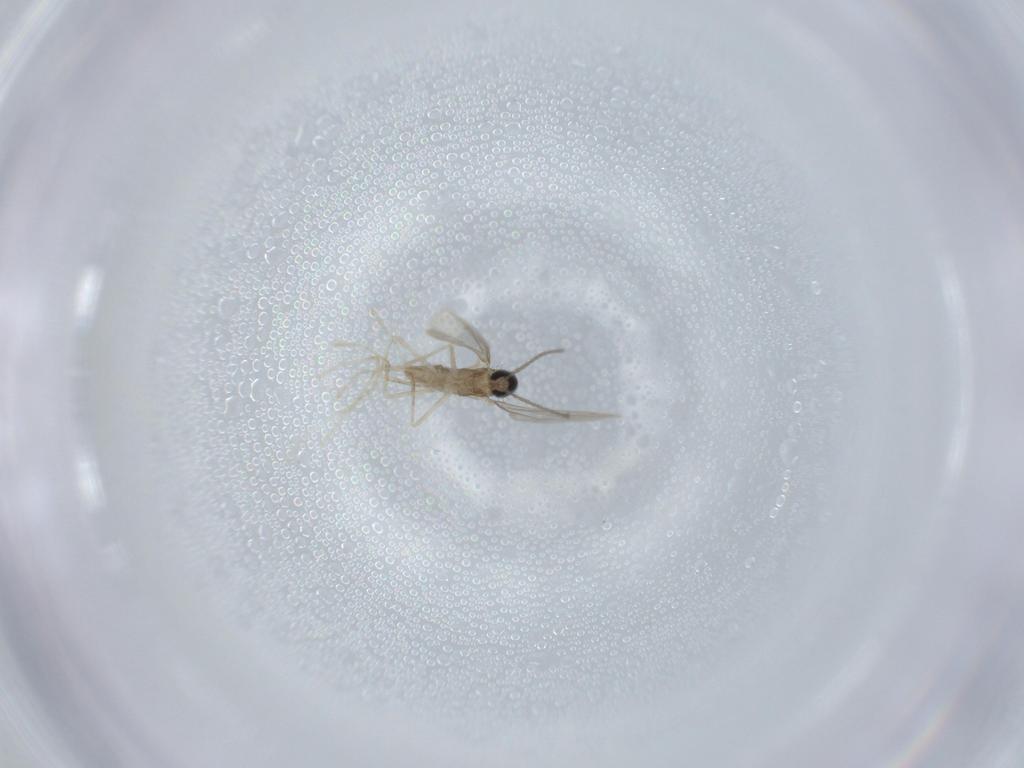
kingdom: Animalia
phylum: Arthropoda
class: Insecta
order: Diptera
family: Cecidomyiidae
